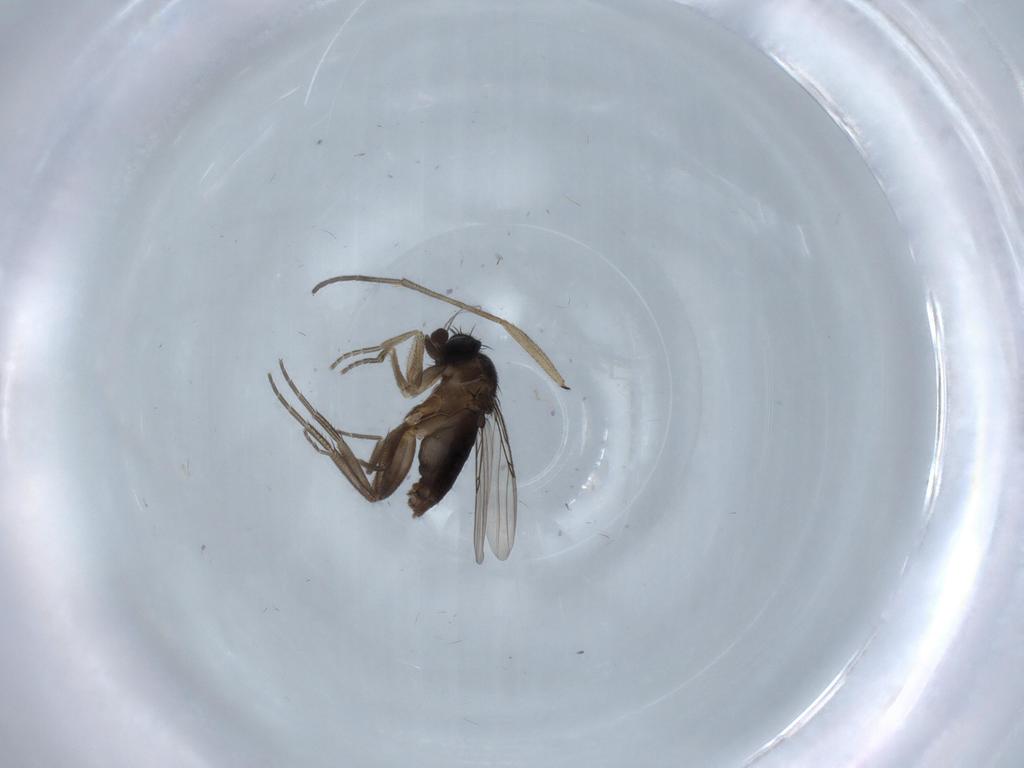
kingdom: Animalia
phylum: Arthropoda
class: Insecta
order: Diptera
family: Phoridae
